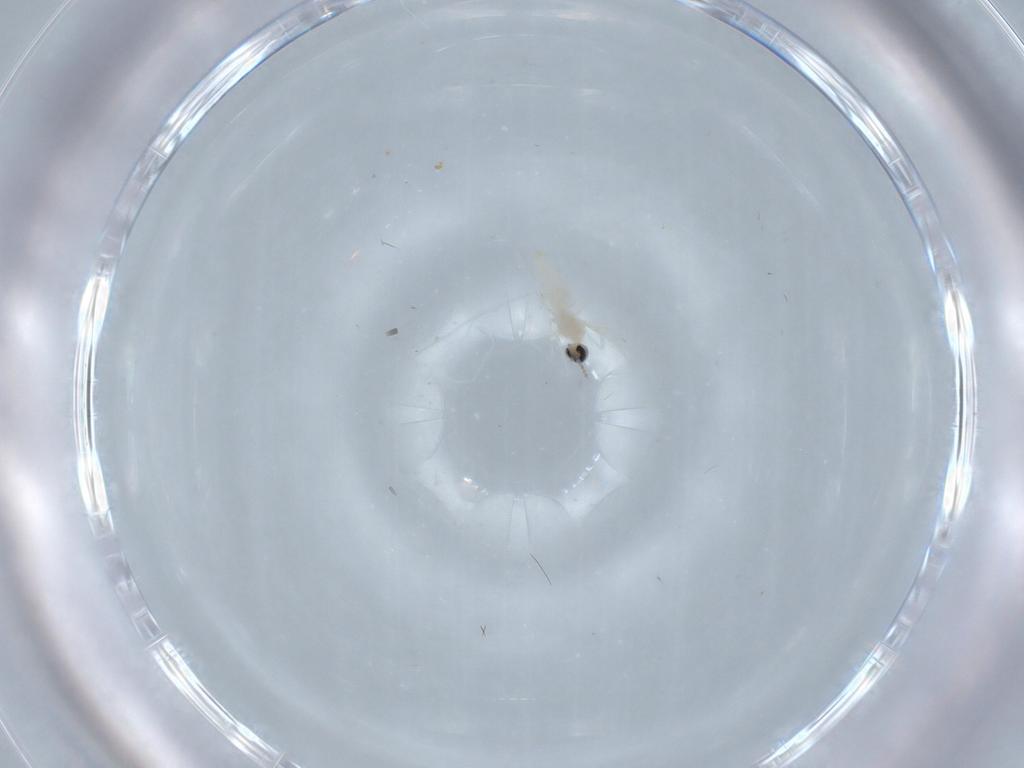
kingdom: Animalia
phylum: Arthropoda
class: Insecta
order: Diptera
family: Cecidomyiidae
